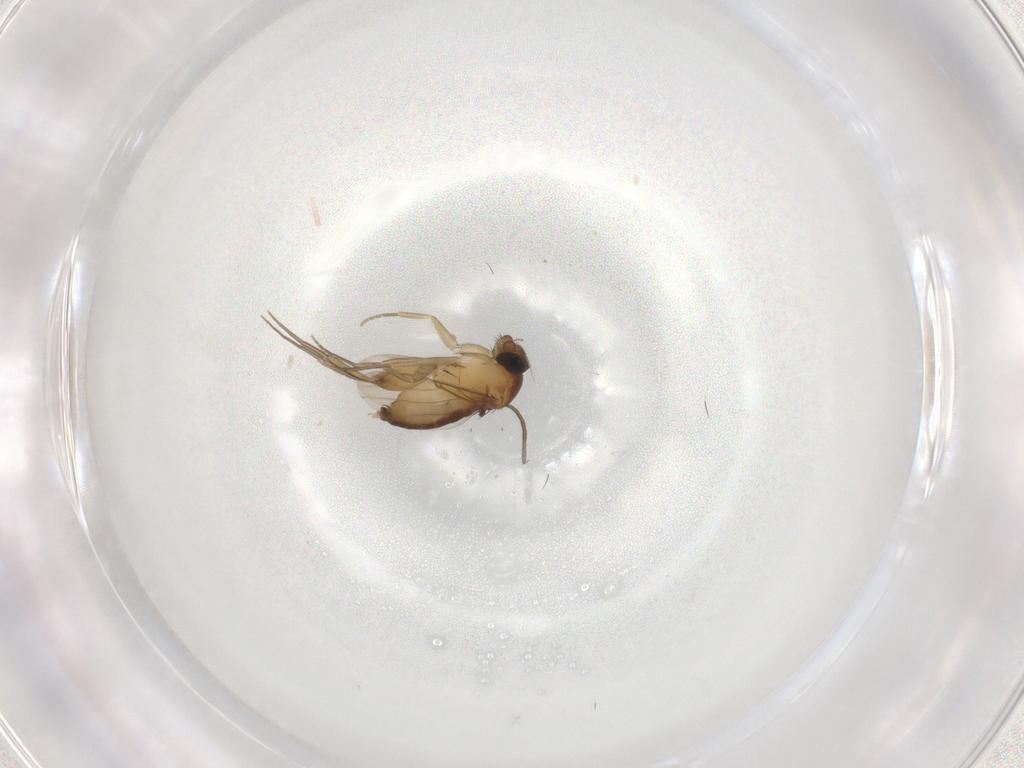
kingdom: Animalia
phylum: Arthropoda
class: Insecta
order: Diptera
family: Phoridae
